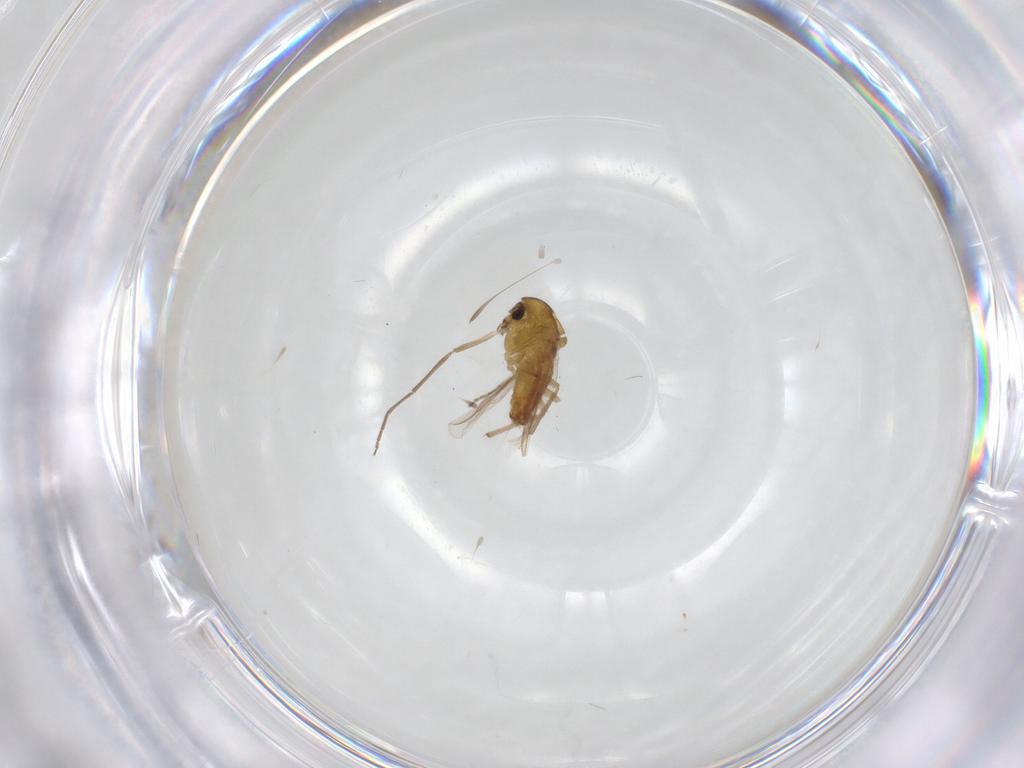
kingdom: Animalia
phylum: Arthropoda
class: Insecta
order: Diptera
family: Chironomidae
